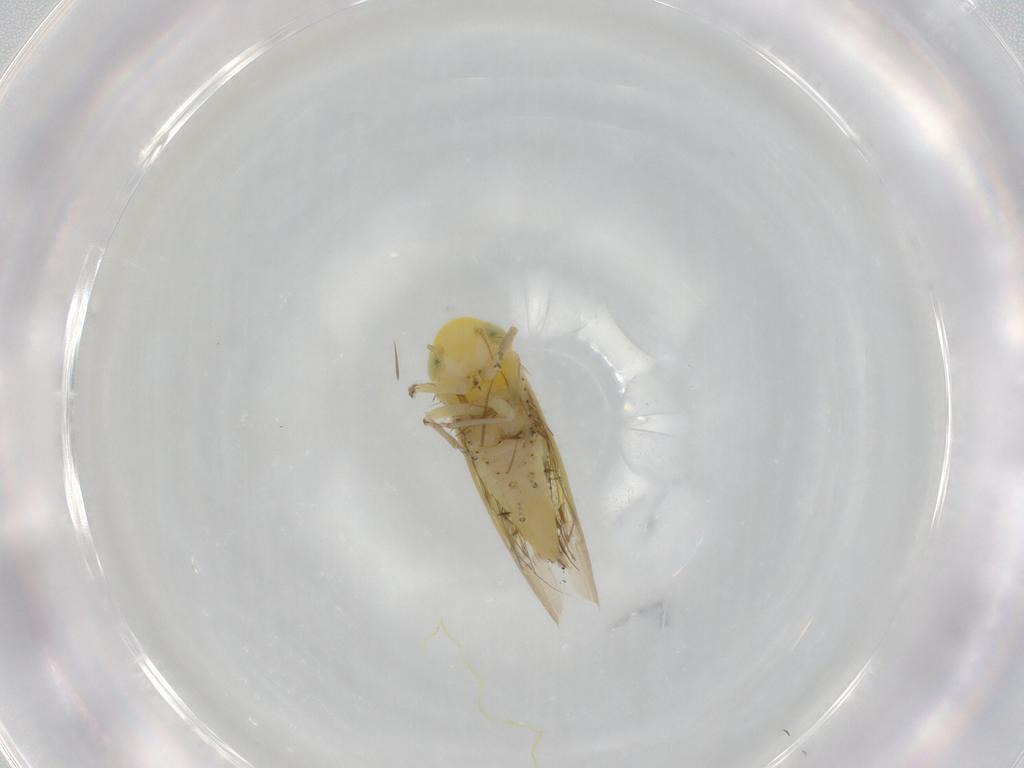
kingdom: Animalia
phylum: Arthropoda
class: Insecta
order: Hemiptera
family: Cicadellidae
